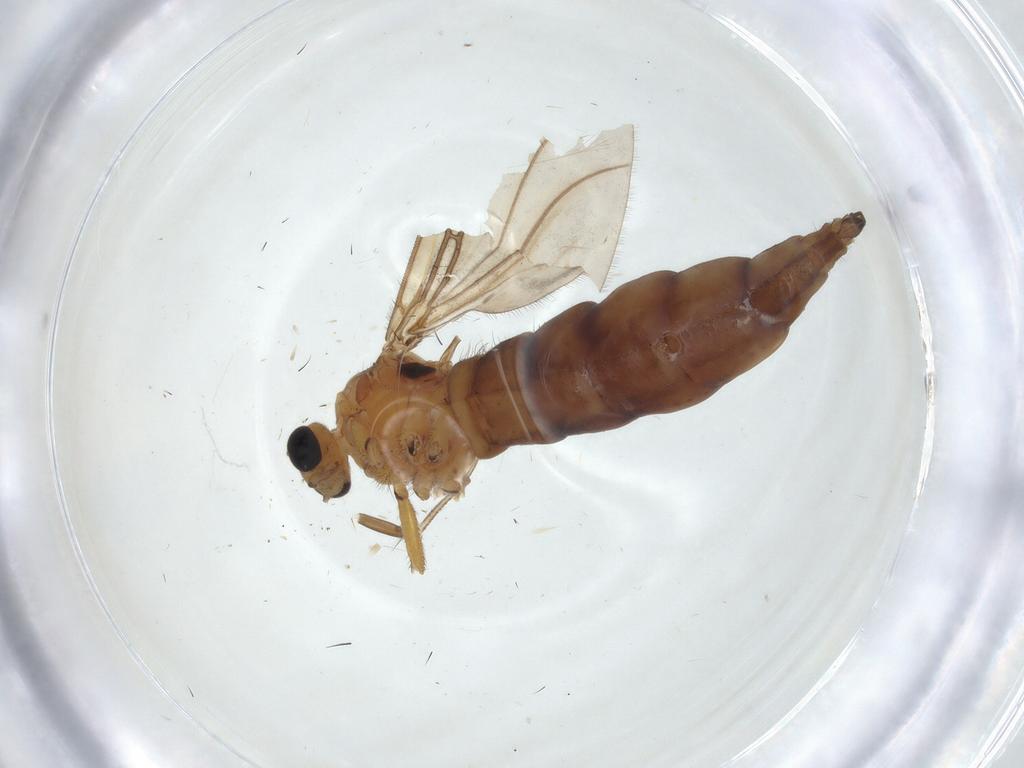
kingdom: Animalia
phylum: Arthropoda
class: Insecta
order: Diptera
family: Sciaridae
